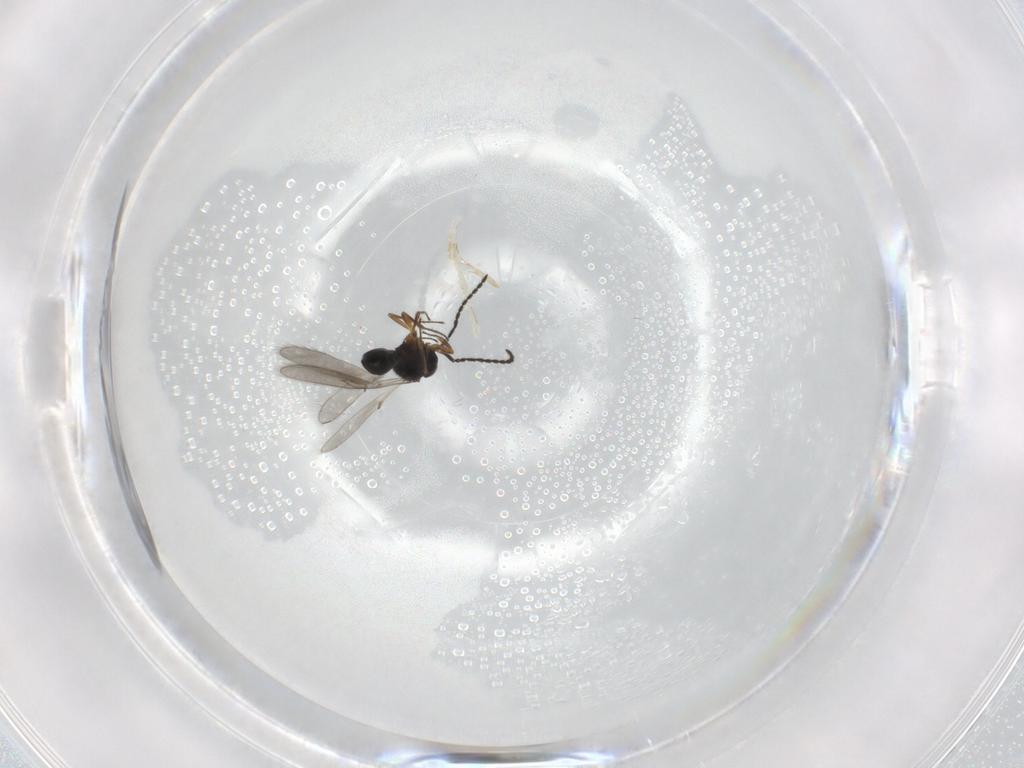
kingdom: Animalia
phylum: Arthropoda
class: Insecta
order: Hymenoptera
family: Scelionidae
